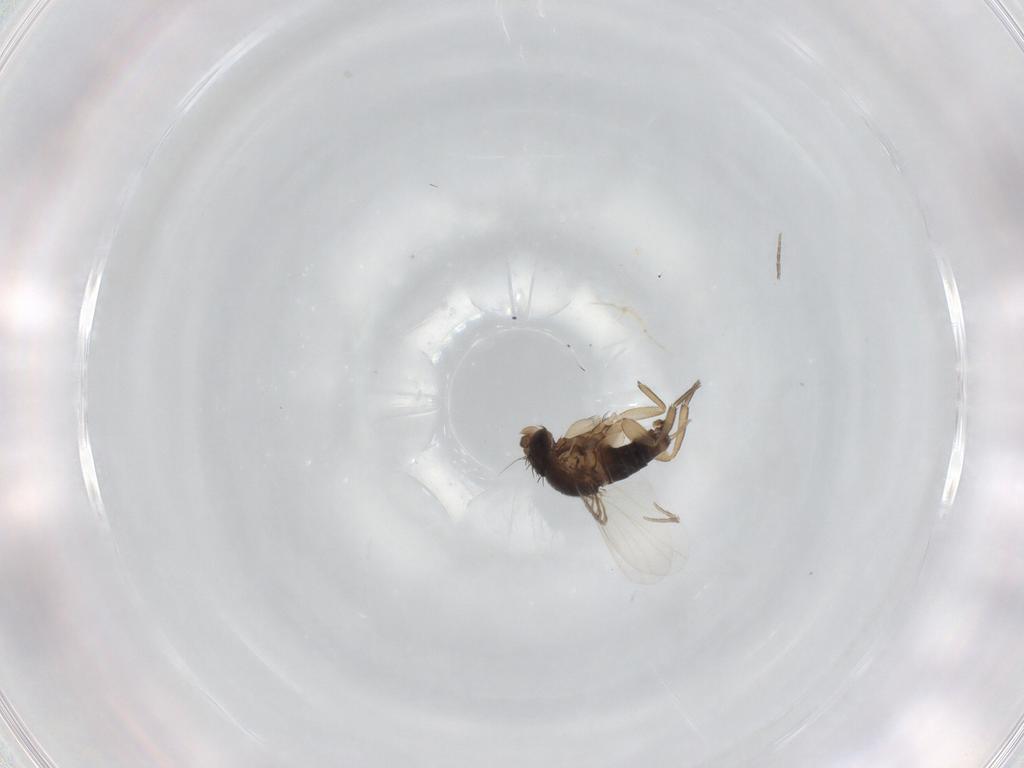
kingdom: Animalia
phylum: Arthropoda
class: Insecta
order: Diptera
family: Phoridae
